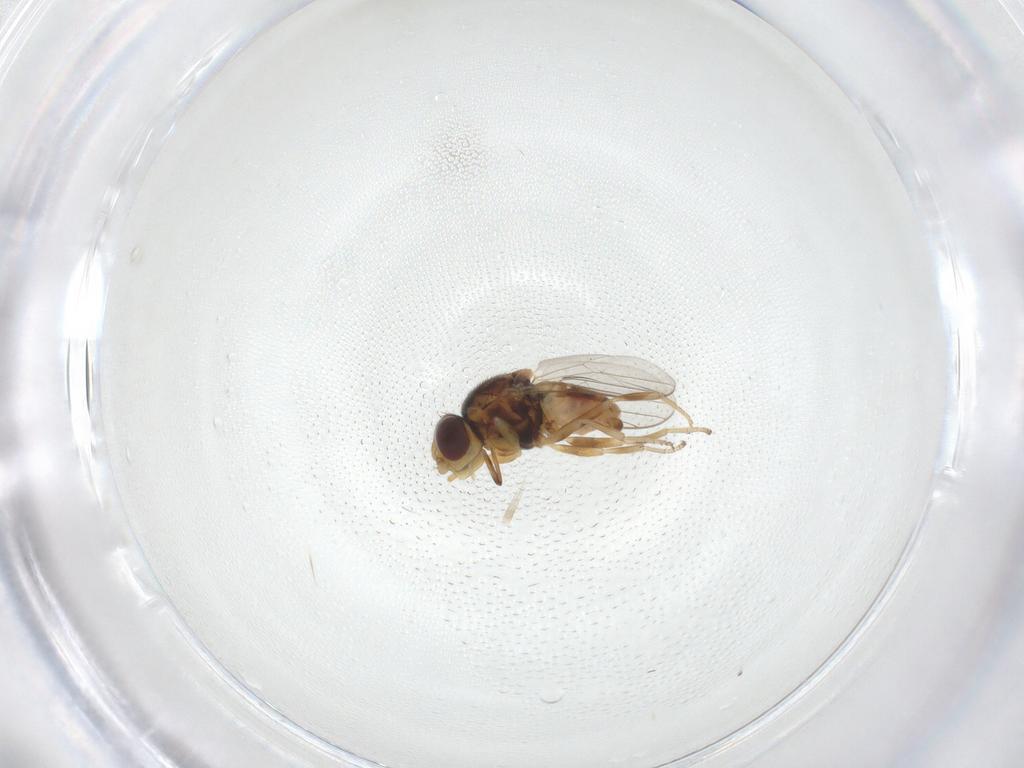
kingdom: Animalia
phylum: Arthropoda
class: Insecta
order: Diptera
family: Chloropidae
